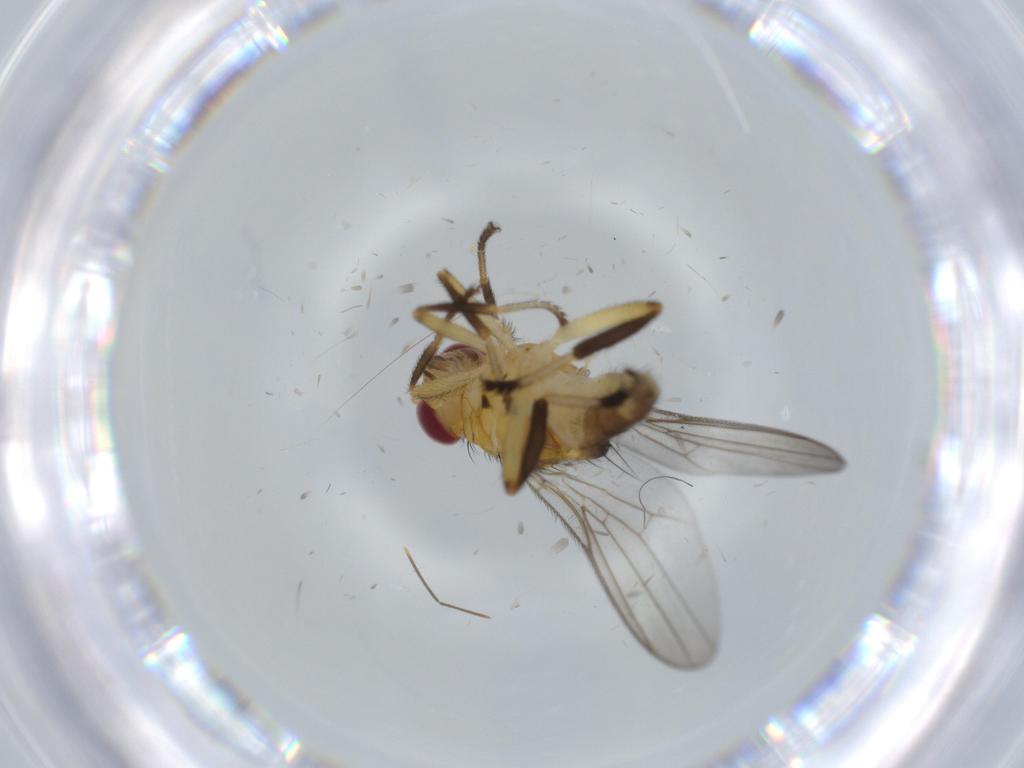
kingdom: Animalia
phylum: Arthropoda
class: Insecta
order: Diptera
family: Chloropidae
